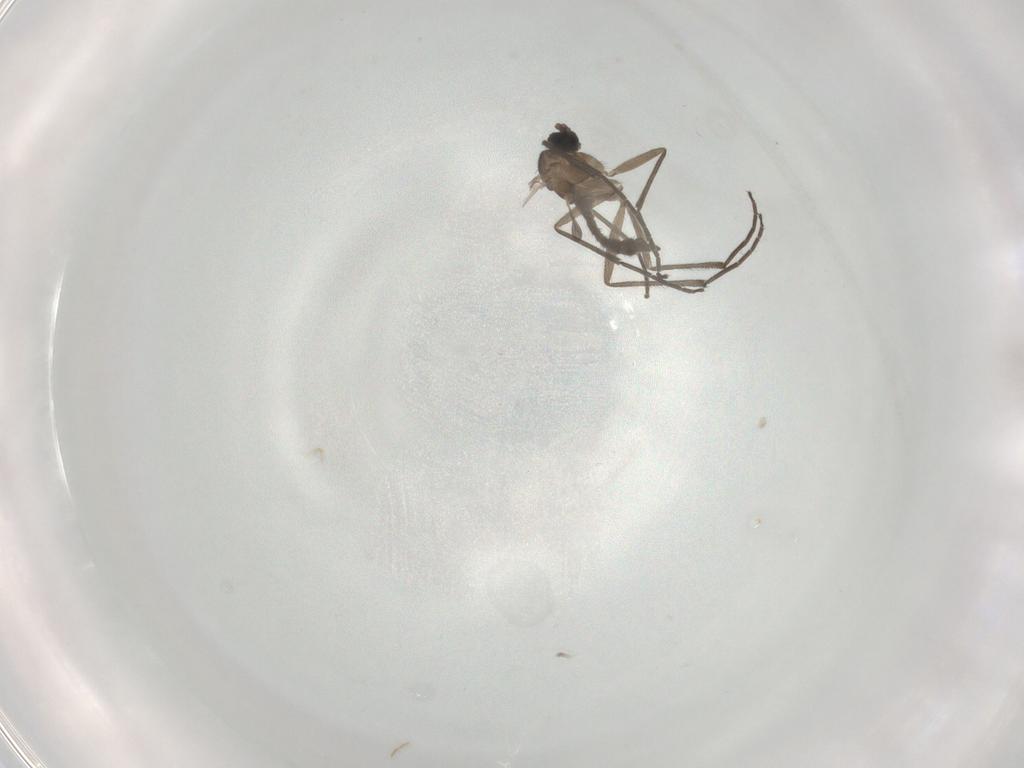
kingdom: Animalia
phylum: Arthropoda
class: Insecta
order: Diptera
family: Sciaridae
